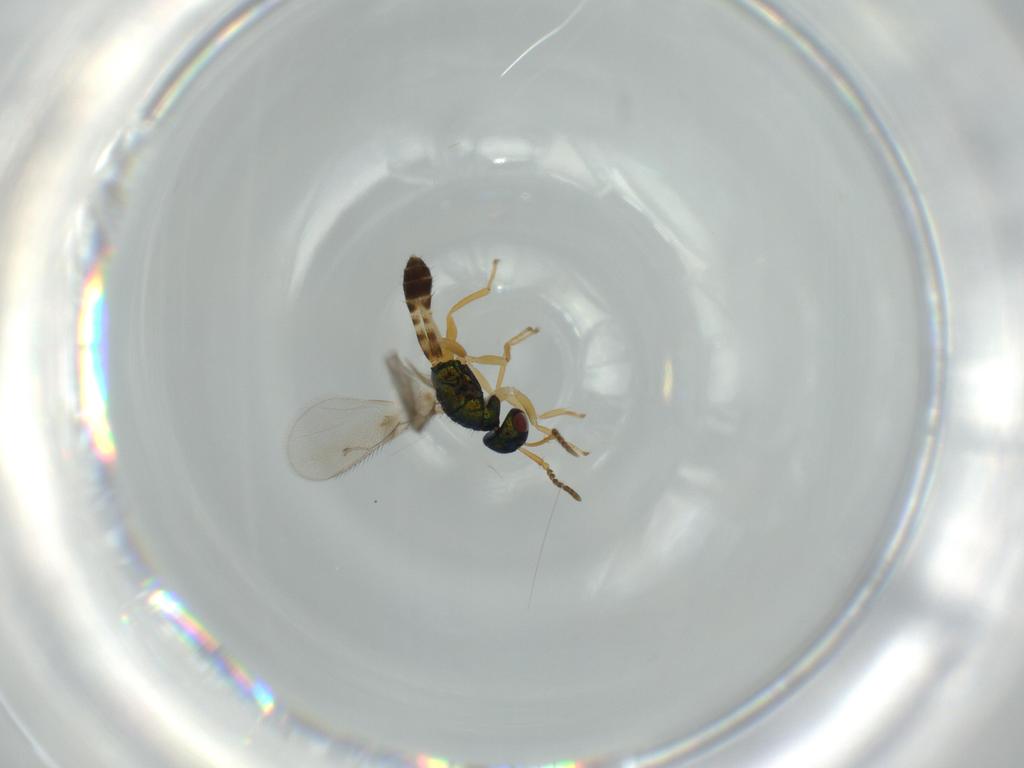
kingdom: Animalia
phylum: Arthropoda
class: Insecta
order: Hymenoptera
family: Pteromalidae
